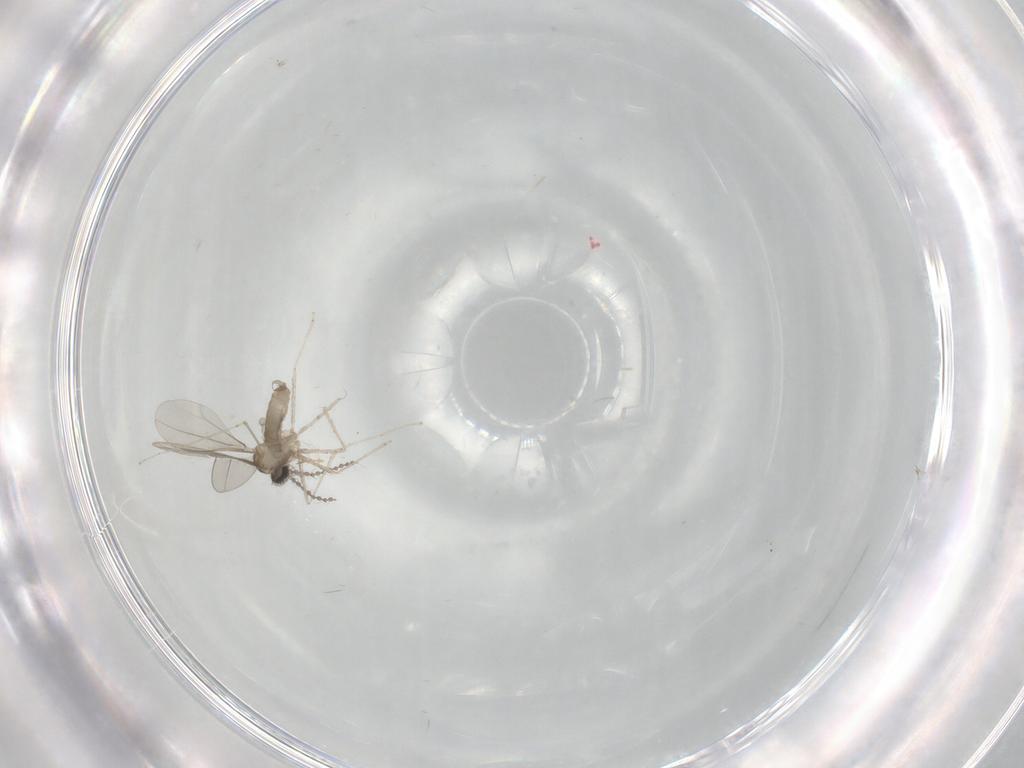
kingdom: Animalia
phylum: Arthropoda
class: Insecta
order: Diptera
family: Cecidomyiidae
